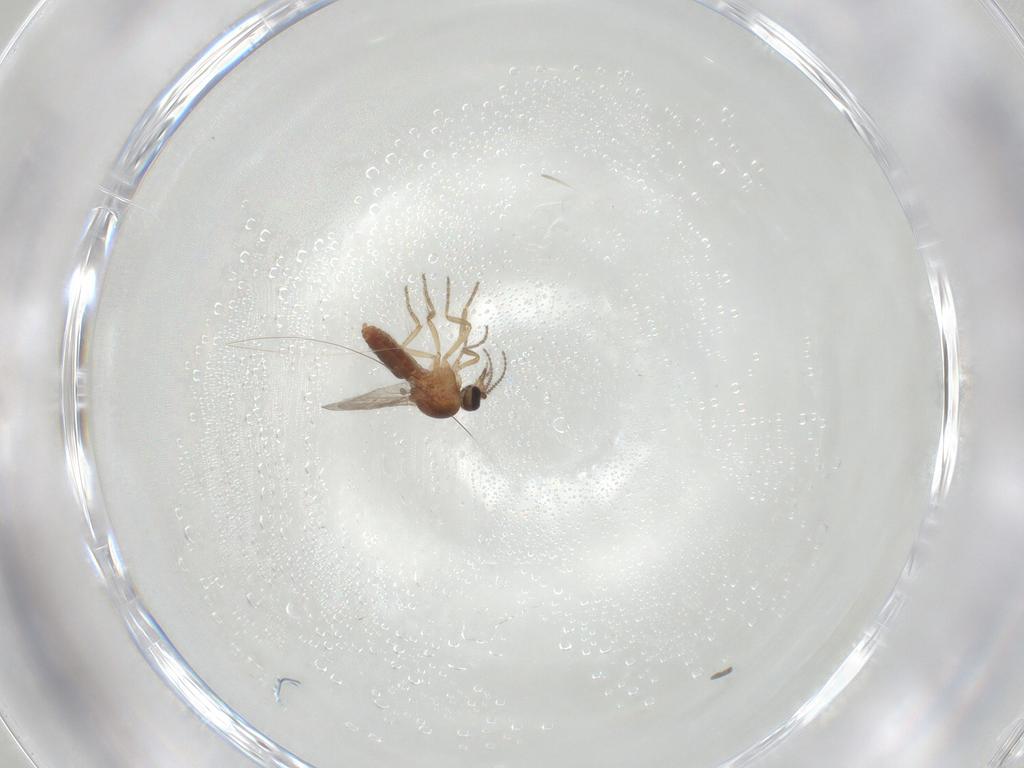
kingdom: Animalia
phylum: Arthropoda
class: Insecta
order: Diptera
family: Ceratopogonidae
